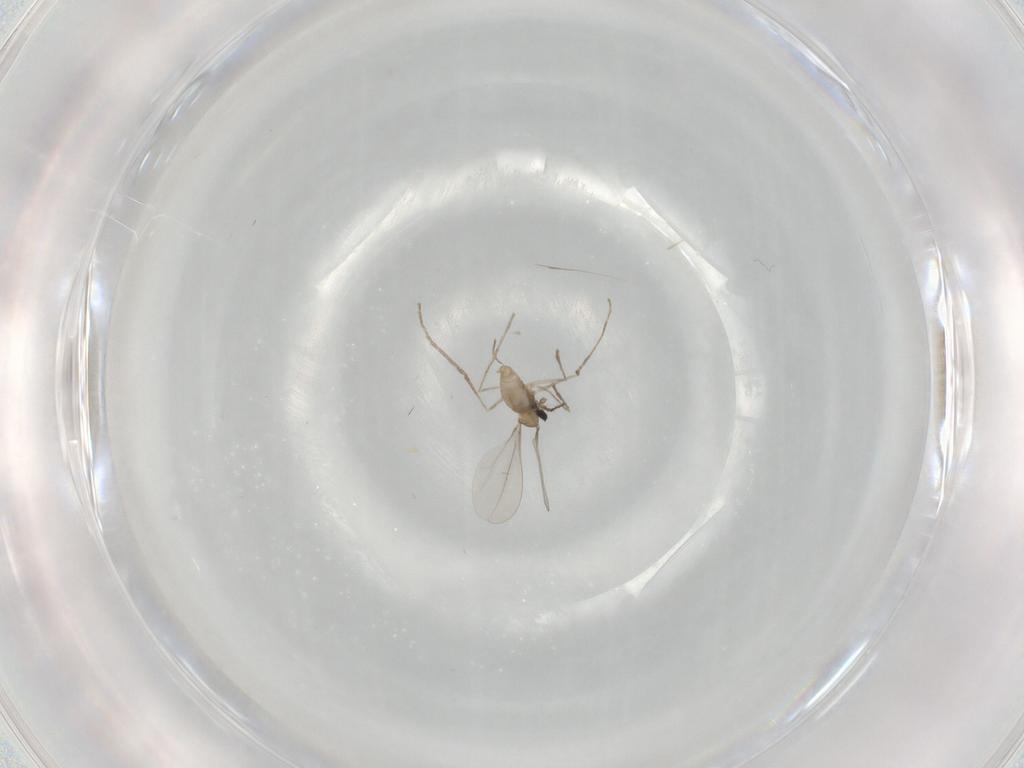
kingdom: Animalia
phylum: Arthropoda
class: Insecta
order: Diptera
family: Cecidomyiidae
